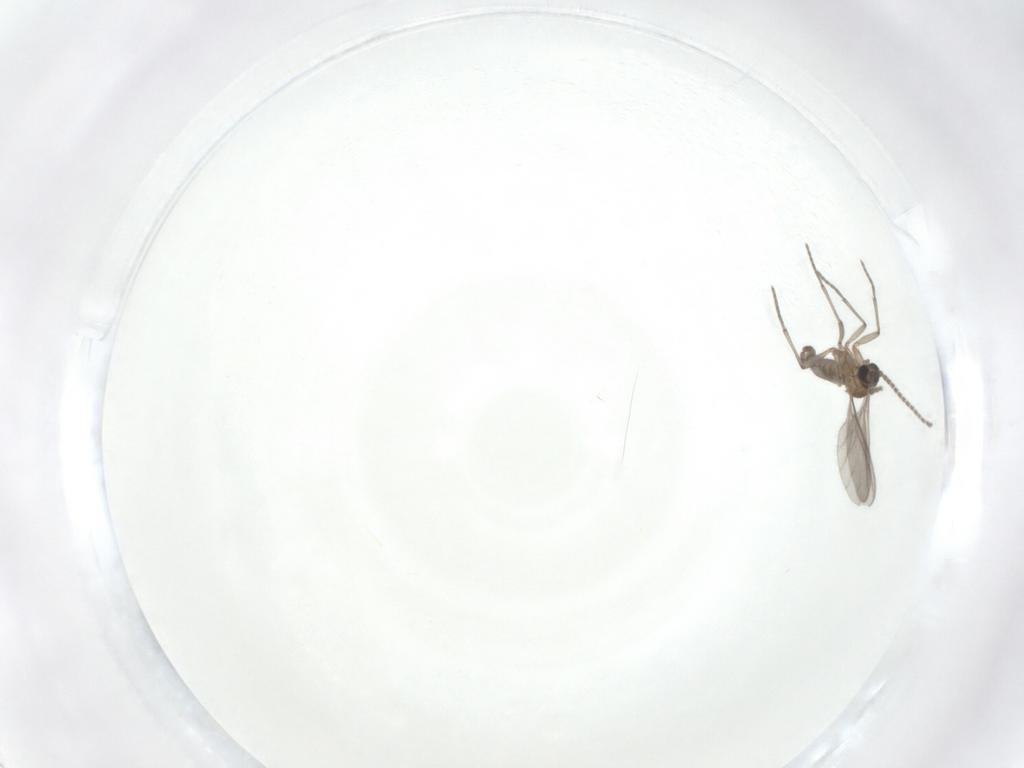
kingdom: Animalia
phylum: Arthropoda
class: Insecta
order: Diptera
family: Sciaridae
